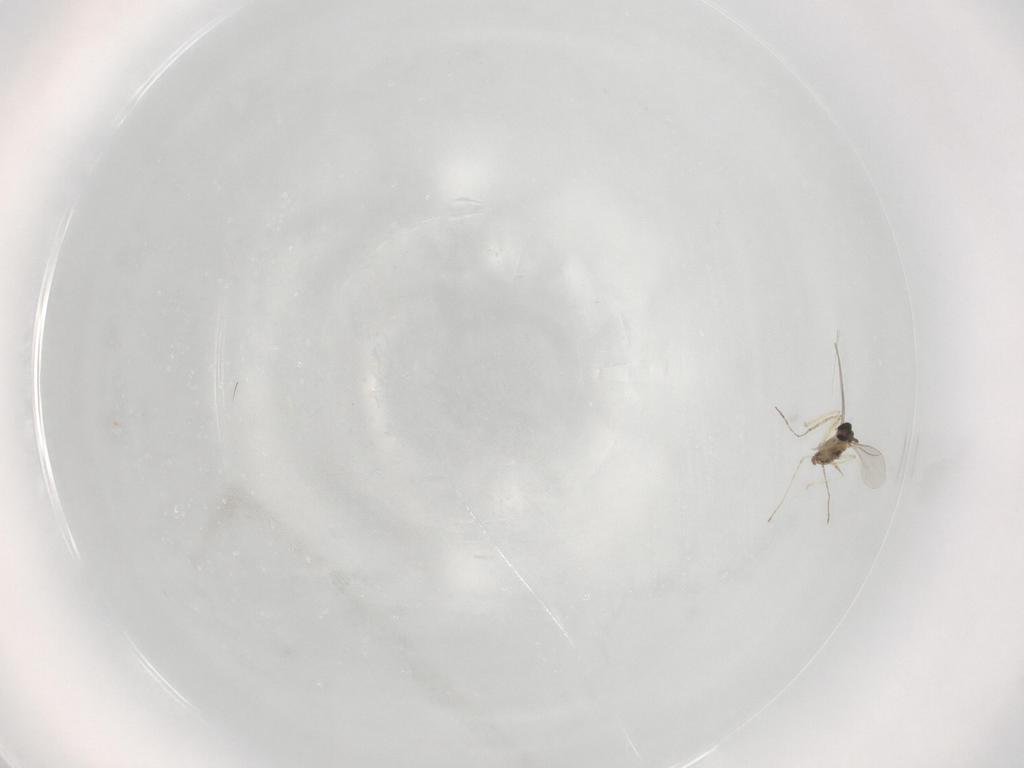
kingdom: Animalia
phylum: Arthropoda
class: Insecta
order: Diptera
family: Cecidomyiidae
